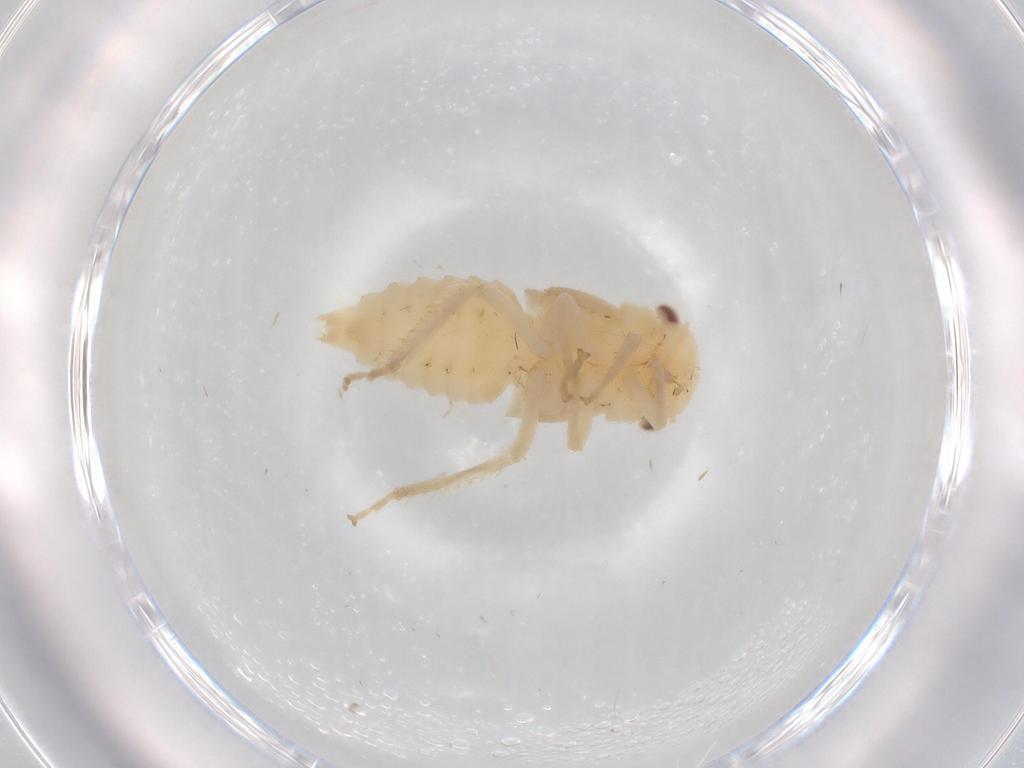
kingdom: Animalia
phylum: Arthropoda
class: Insecta
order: Hemiptera
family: Cicadellidae
